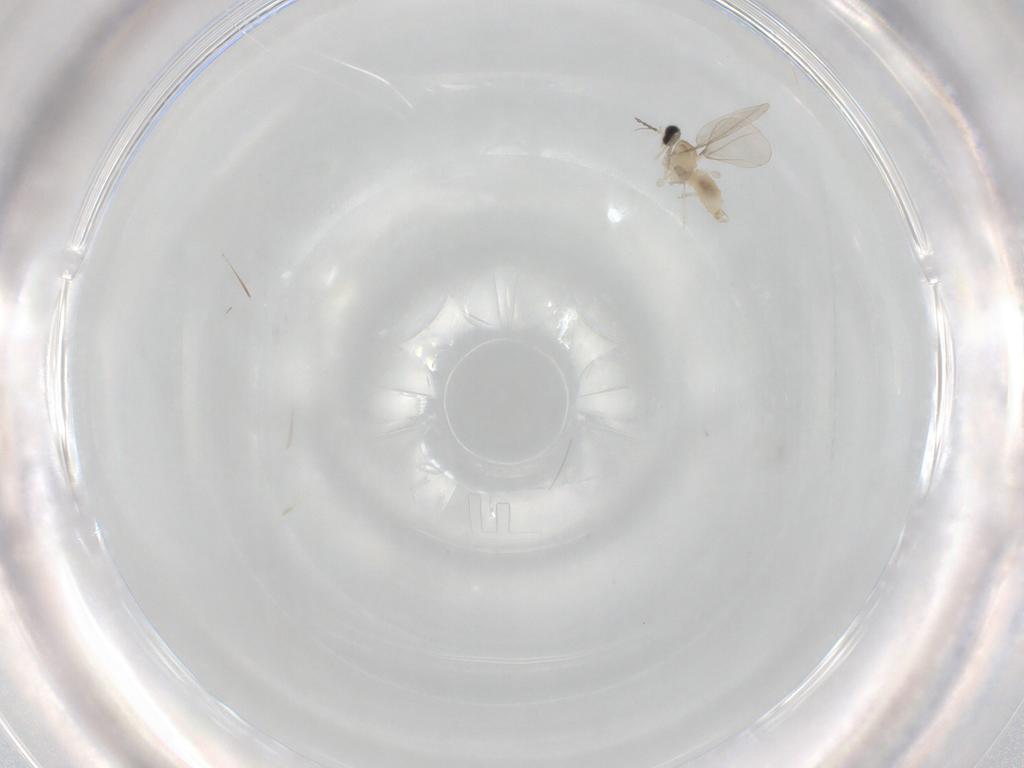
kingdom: Animalia
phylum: Arthropoda
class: Insecta
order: Diptera
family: Cecidomyiidae
